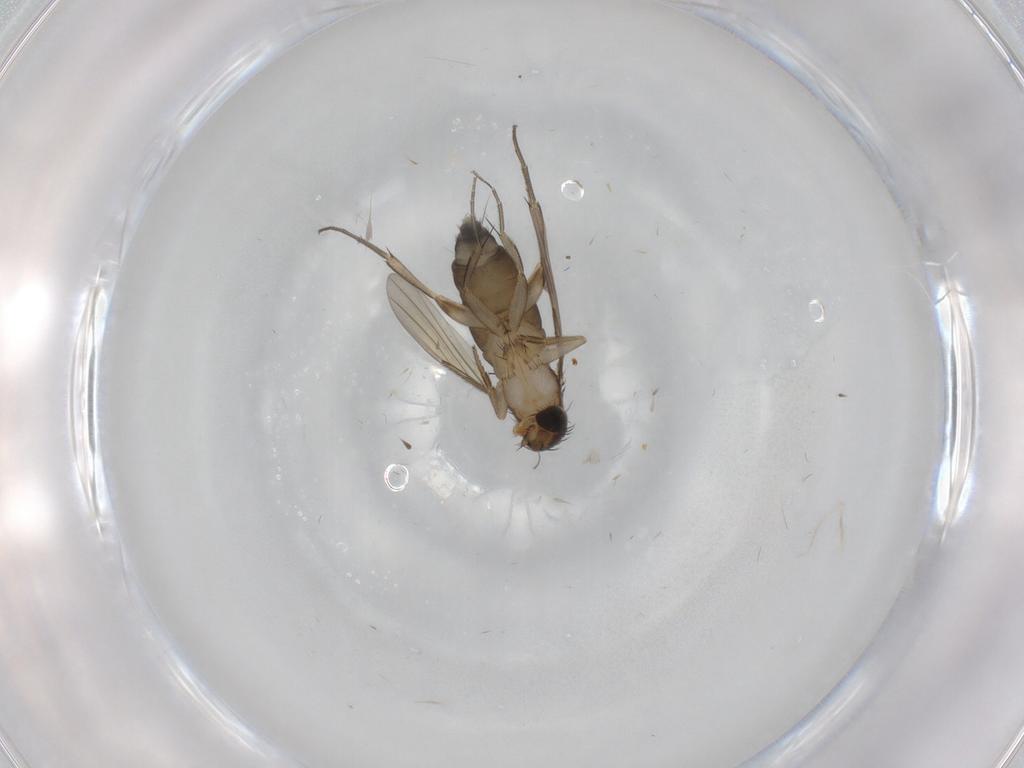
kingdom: Animalia
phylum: Arthropoda
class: Insecta
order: Diptera
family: Phoridae
